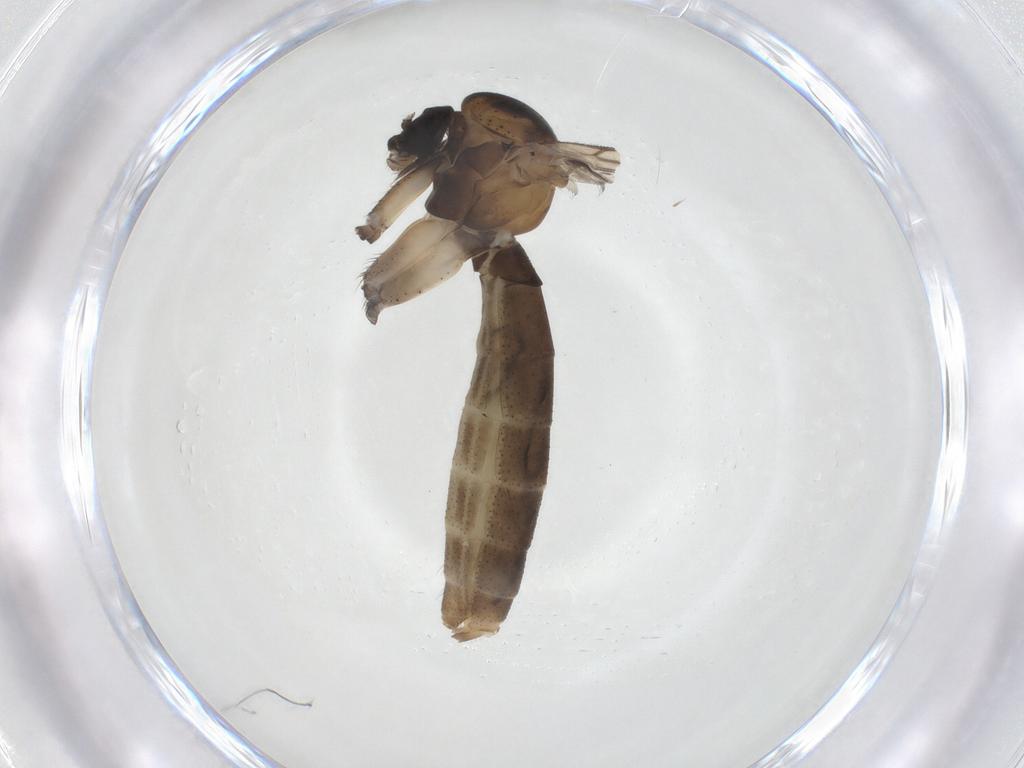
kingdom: Animalia
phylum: Arthropoda
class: Insecta
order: Diptera
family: Mycetophilidae
